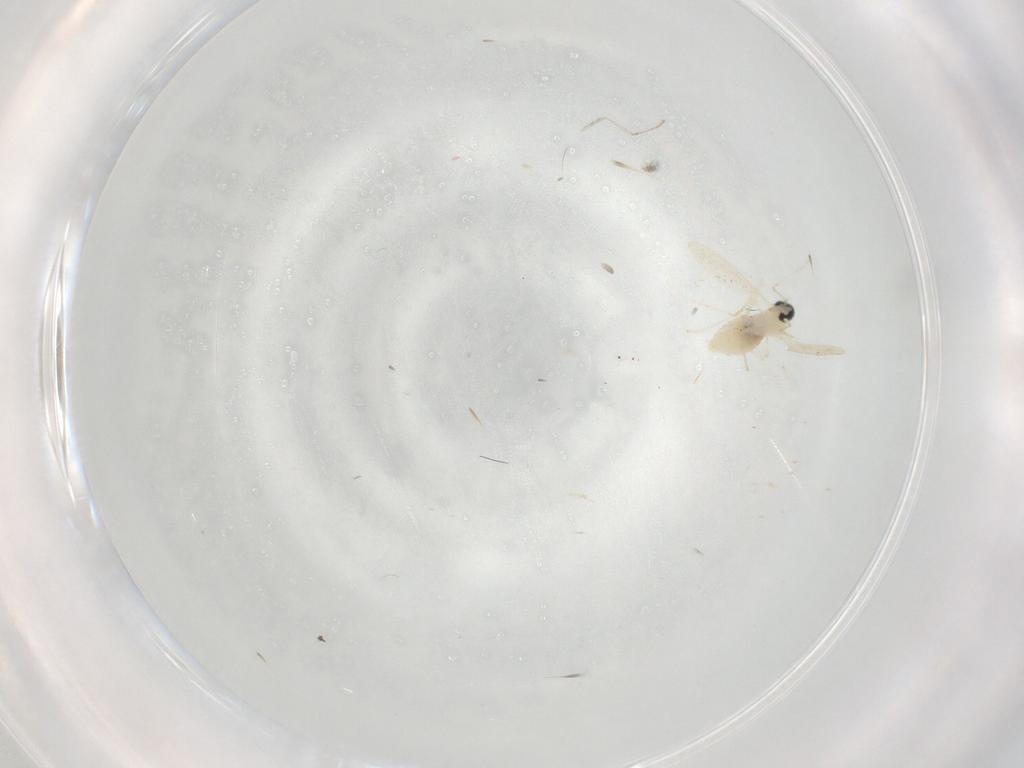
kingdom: Animalia
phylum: Arthropoda
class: Insecta
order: Diptera
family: Cecidomyiidae
